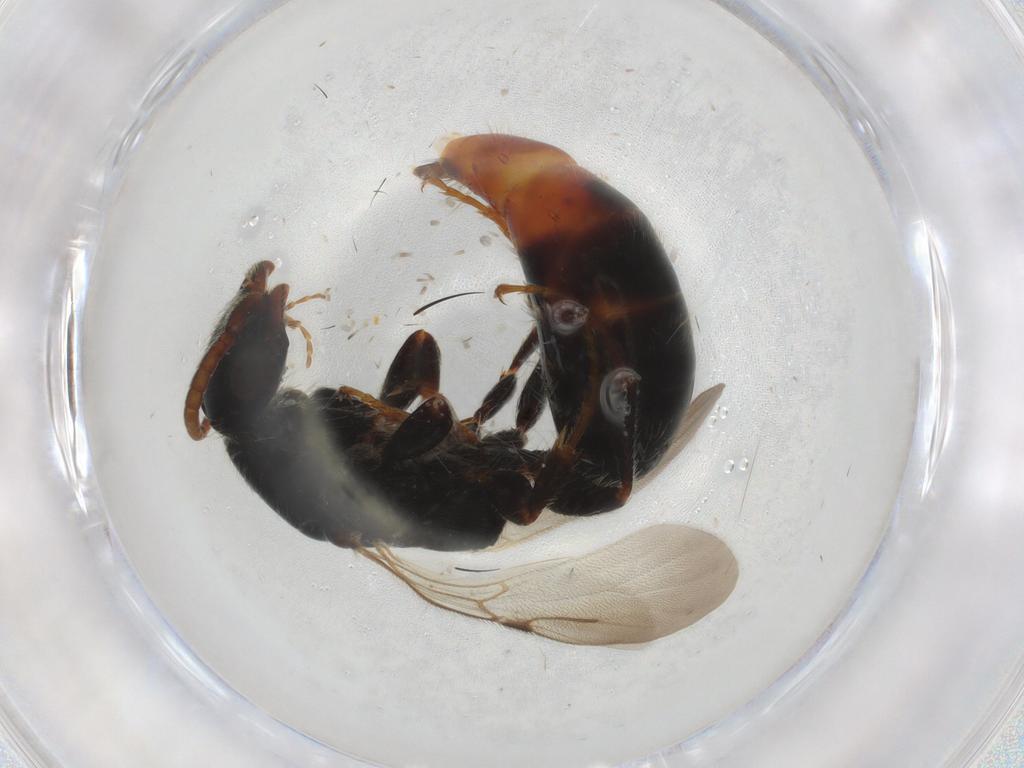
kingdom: Animalia
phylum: Arthropoda
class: Insecta
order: Hymenoptera
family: Bethylidae
